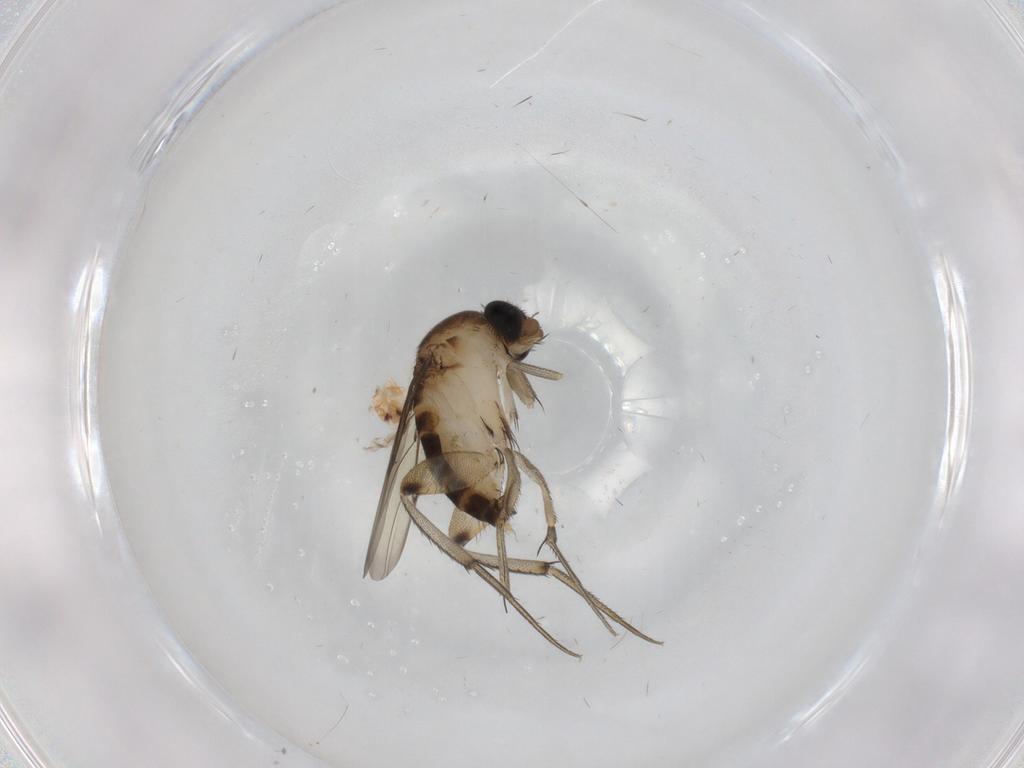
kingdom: Animalia
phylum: Arthropoda
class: Insecta
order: Diptera
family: Phoridae
